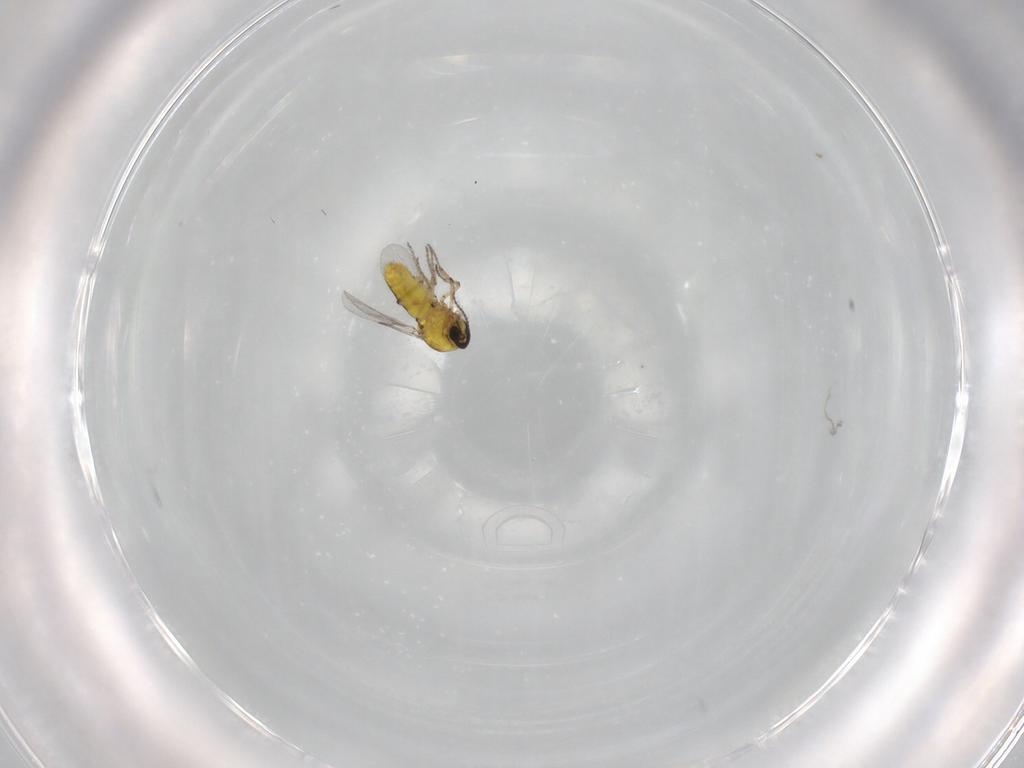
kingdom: Animalia
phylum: Arthropoda
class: Insecta
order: Diptera
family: Ceratopogonidae
